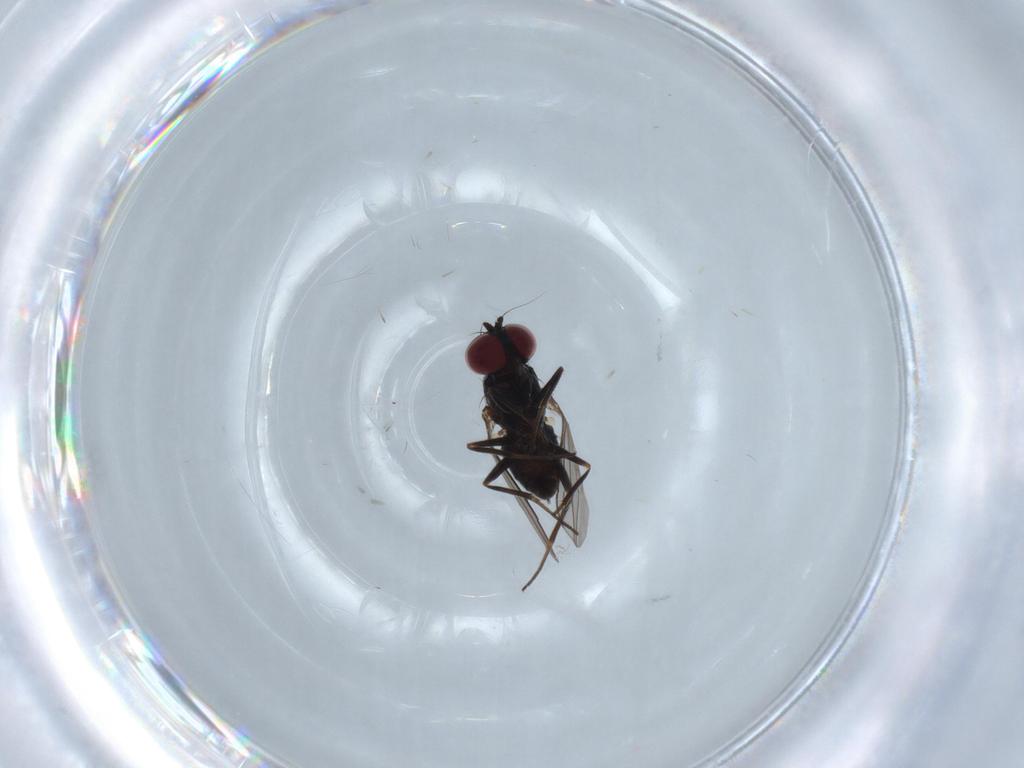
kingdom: Animalia
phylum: Arthropoda
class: Insecta
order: Diptera
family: Dolichopodidae
